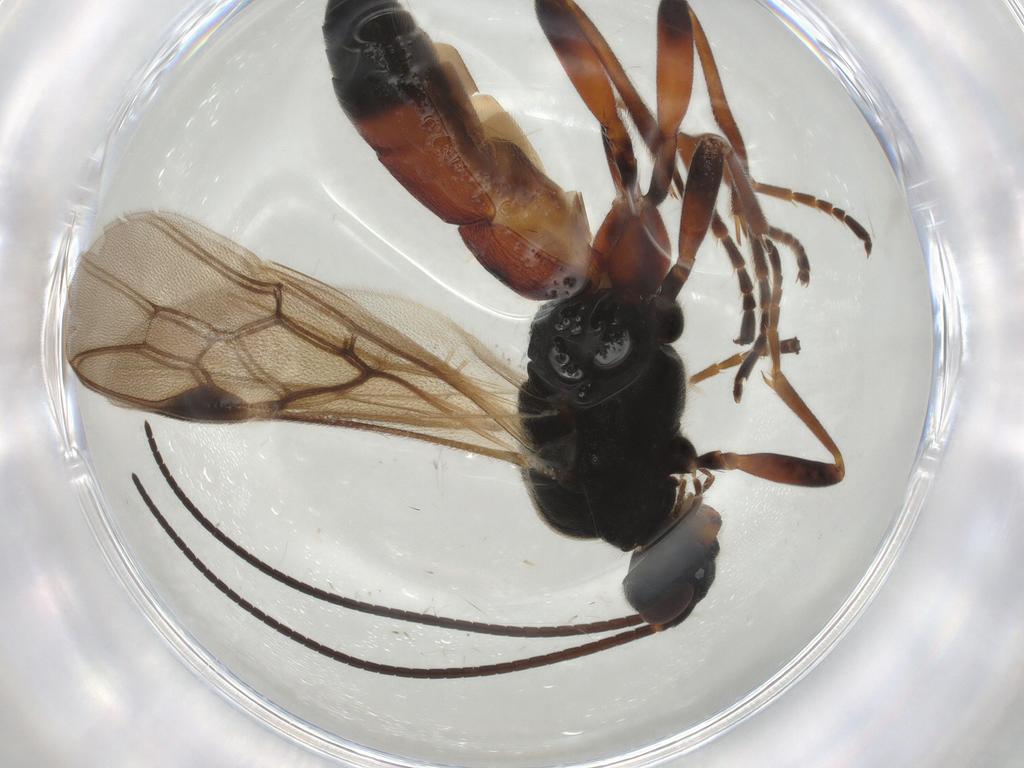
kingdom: Animalia
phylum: Arthropoda
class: Insecta
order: Hymenoptera
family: Braconidae
